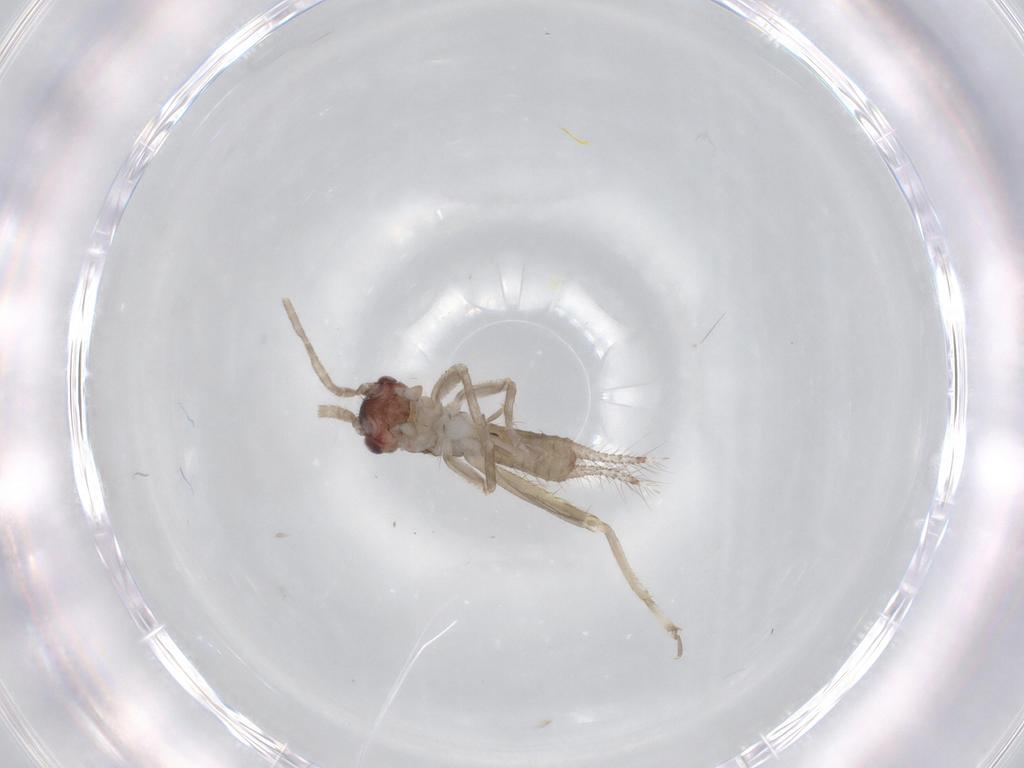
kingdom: Animalia
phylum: Arthropoda
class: Insecta
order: Orthoptera
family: Gryllidae
